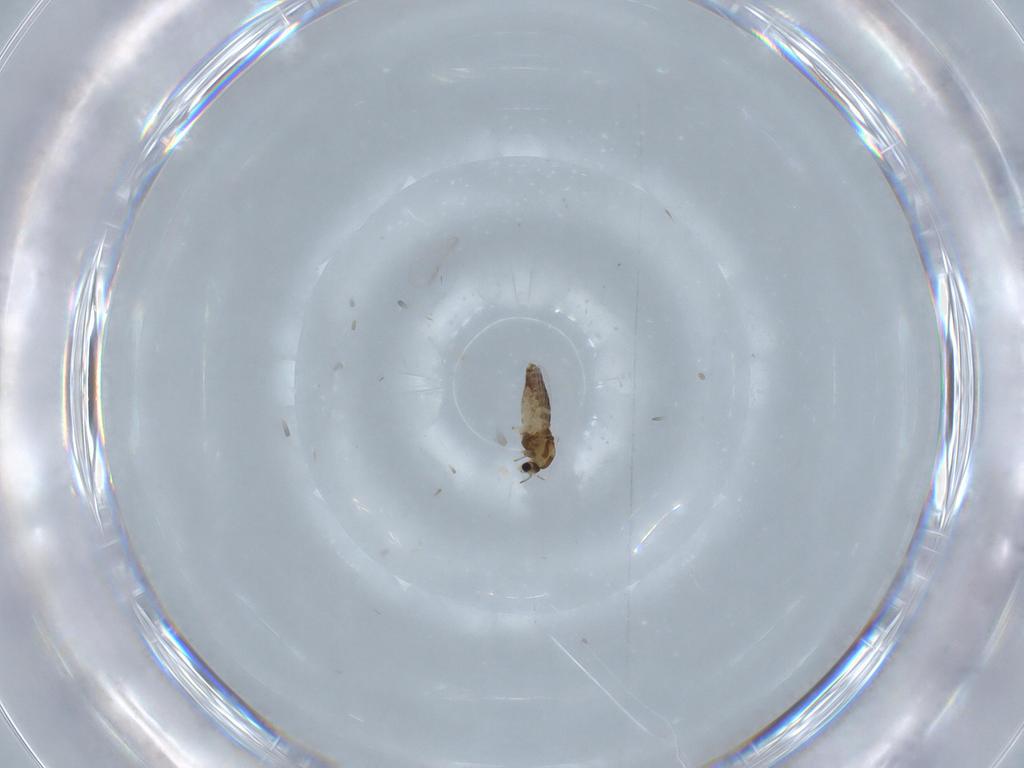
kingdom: Animalia
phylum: Arthropoda
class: Insecta
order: Diptera
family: Chironomidae
